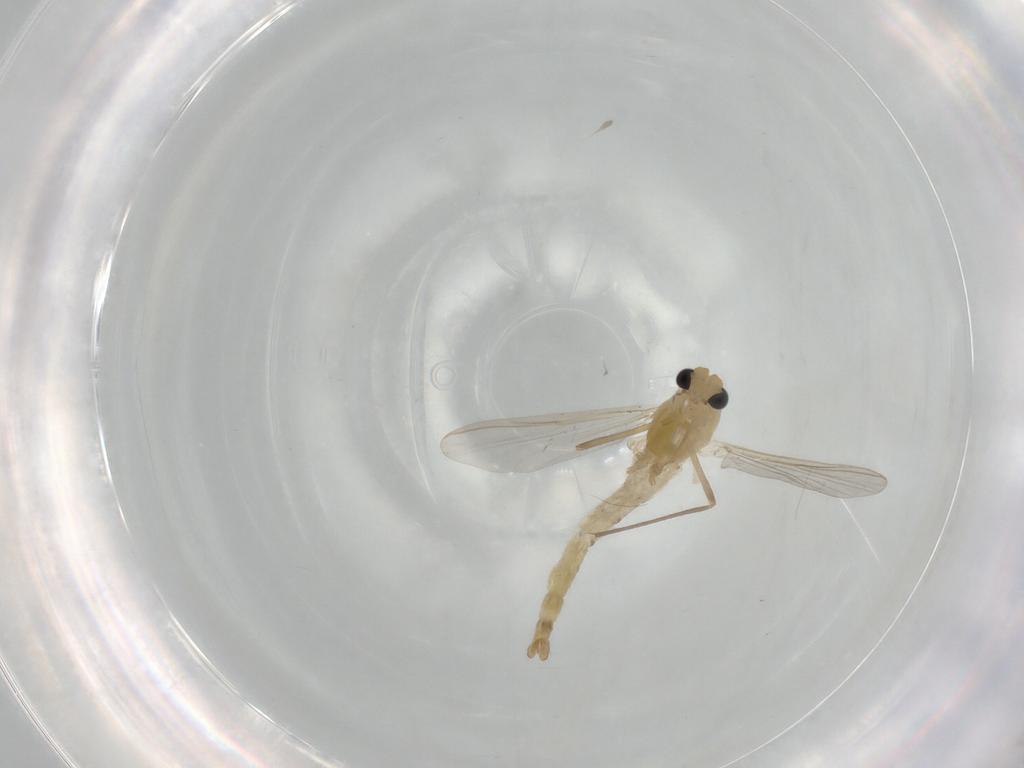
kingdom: Animalia
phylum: Arthropoda
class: Insecta
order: Diptera
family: Chironomidae
